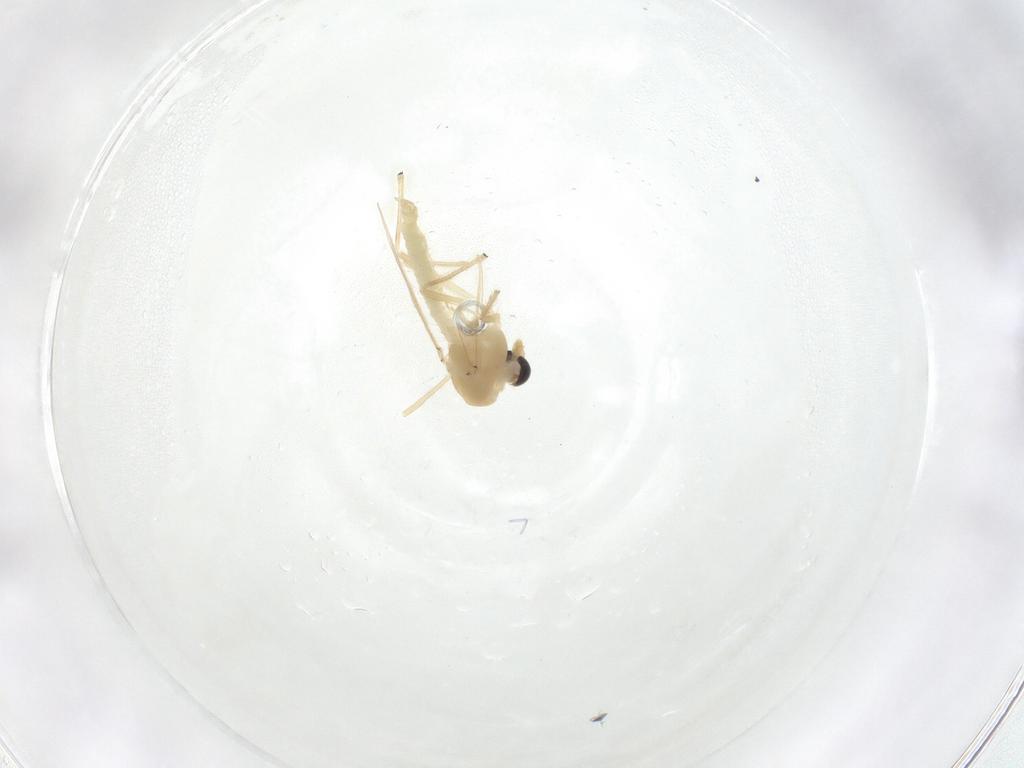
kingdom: Animalia
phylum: Arthropoda
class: Insecta
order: Diptera
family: Chironomidae
